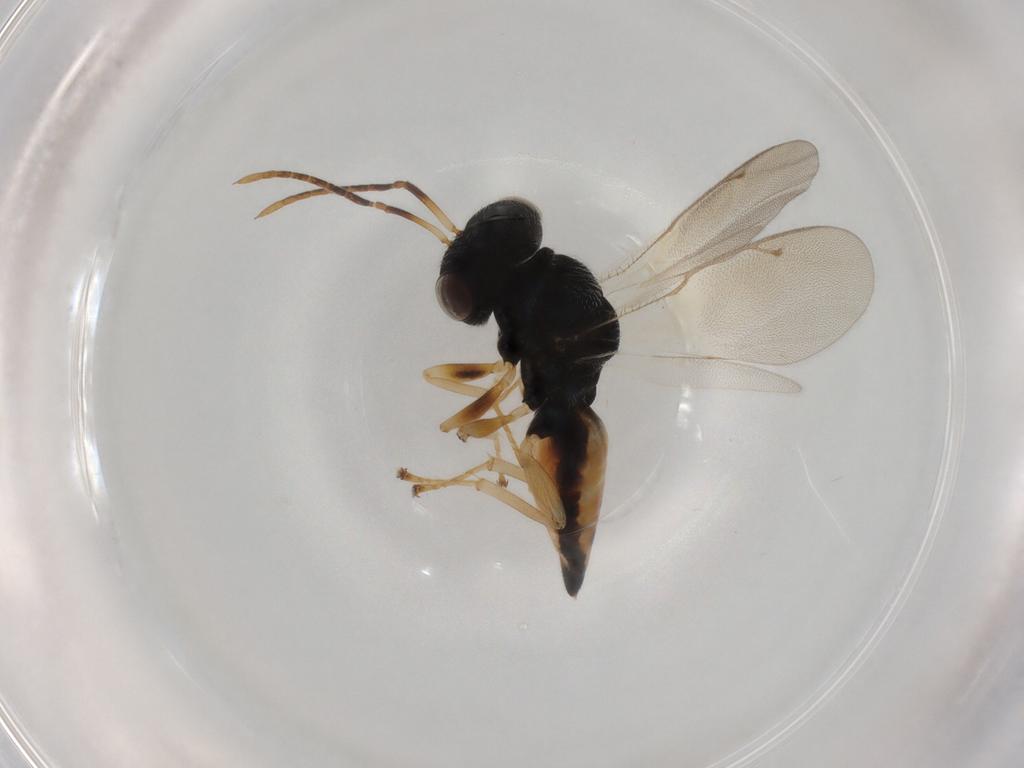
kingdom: Animalia
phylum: Arthropoda
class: Insecta
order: Hymenoptera
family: Pteromalidae
